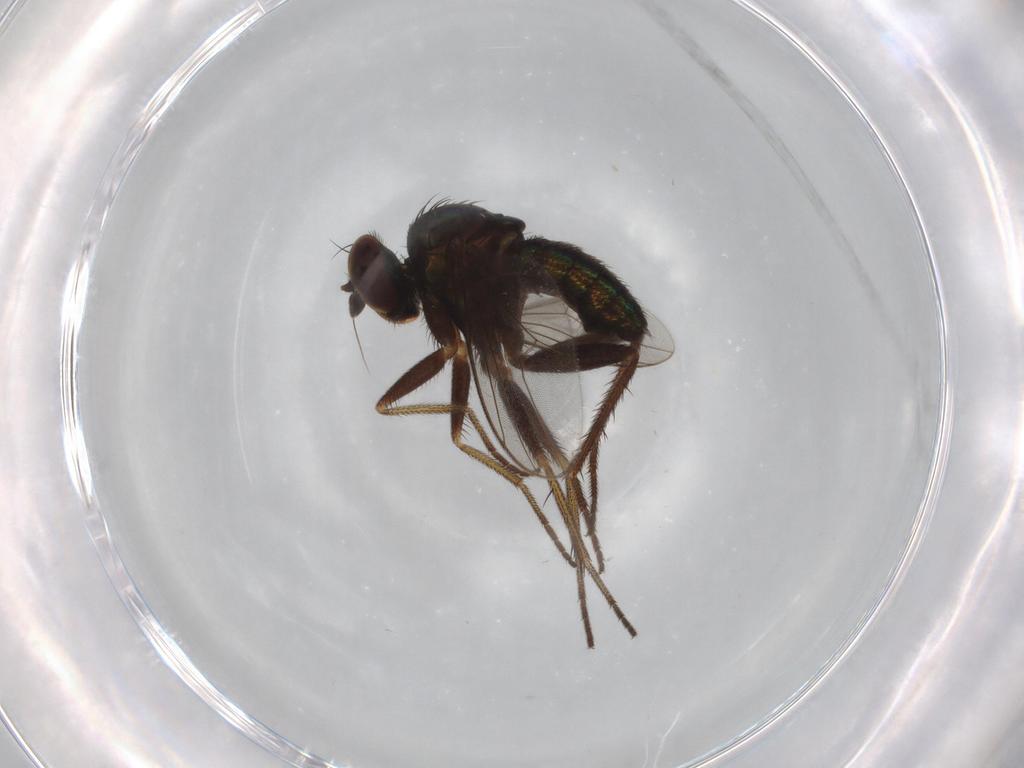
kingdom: Animalia
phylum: Arthropoda
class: Insecta
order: Diptera
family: Dolichopodidae
